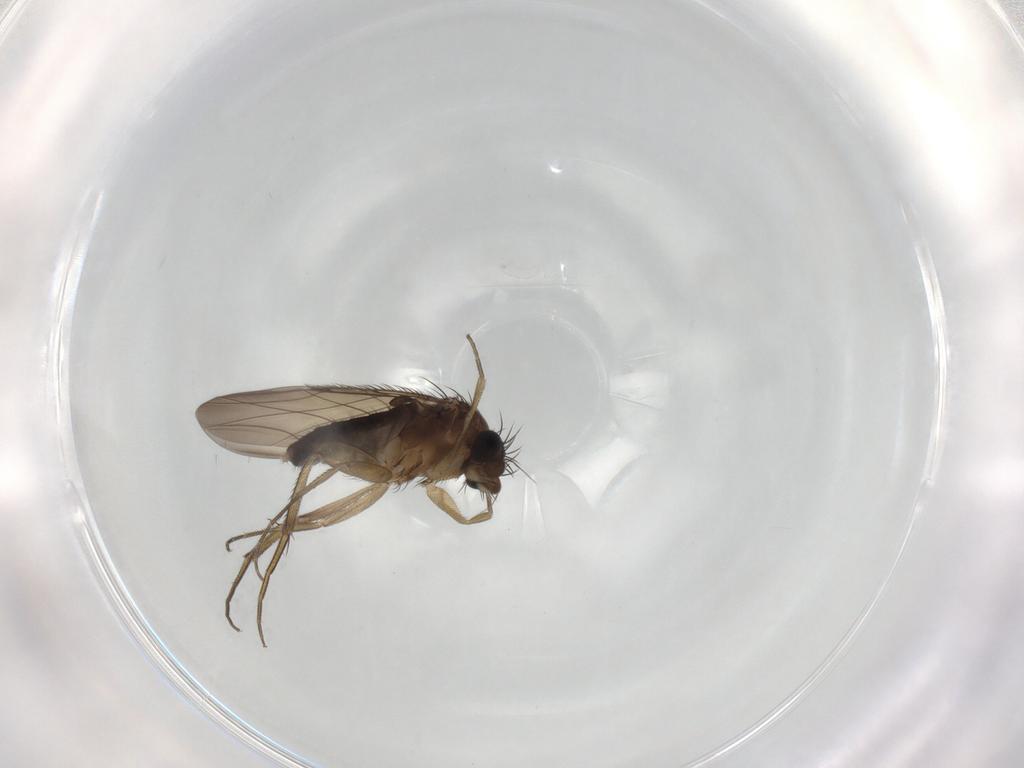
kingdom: Animalia
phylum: Arthropoda
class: Insecta
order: Diptera
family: Phoridae
